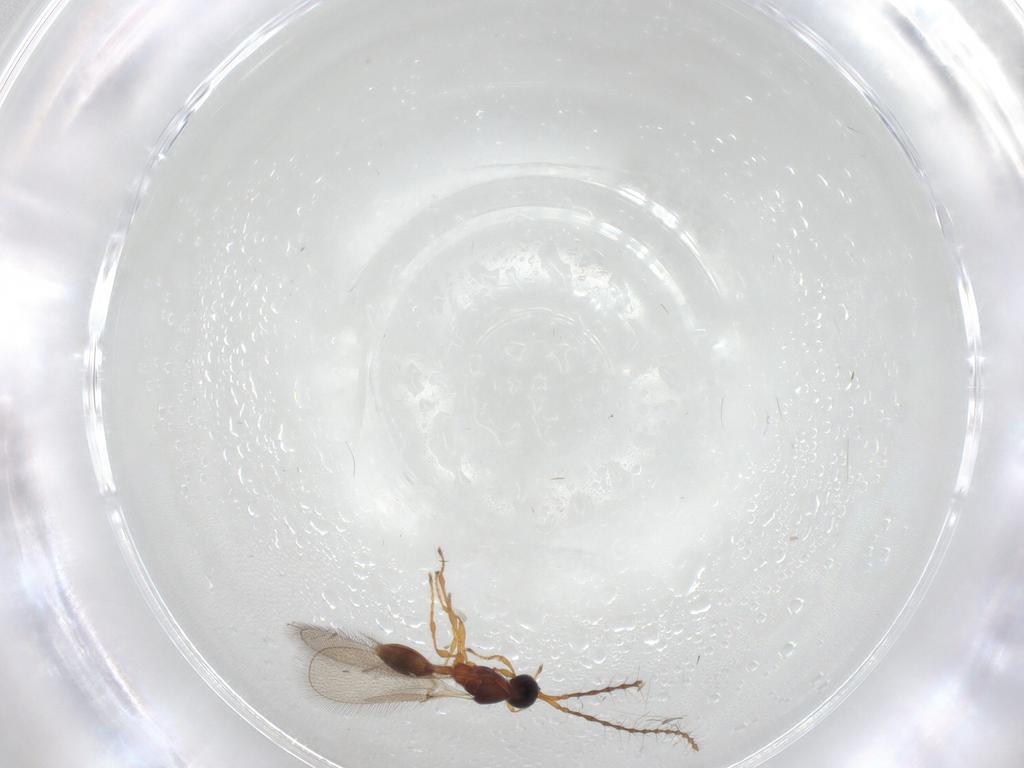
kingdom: Animalia
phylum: Arthropoda
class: Insecta
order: Hymenoptera
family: Diapriidae
